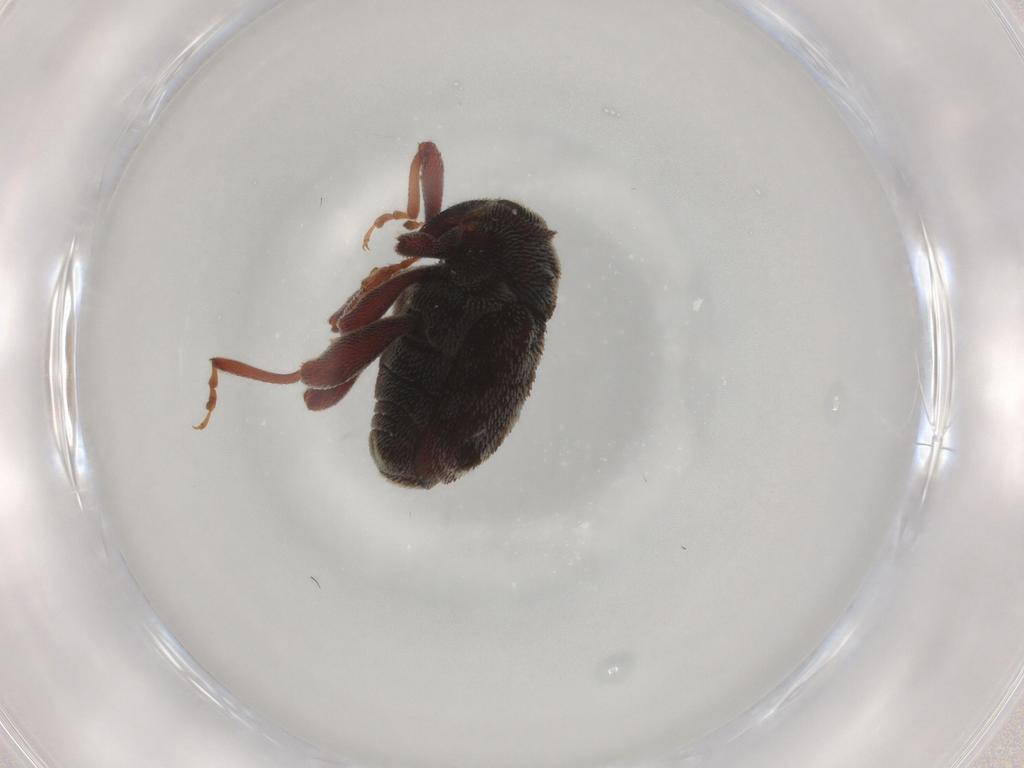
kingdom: Animalia
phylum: Arthropoda
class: Insecta
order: Coleoptera
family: Curculionidae
